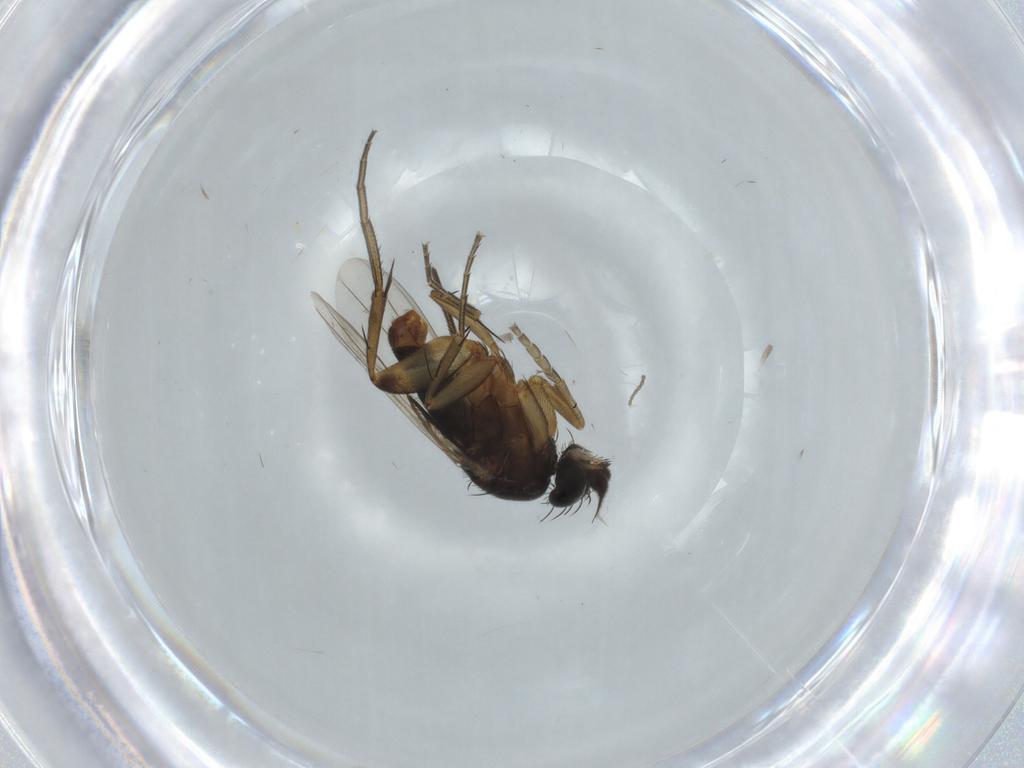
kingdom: Animalia
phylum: Arthropoda
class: Insecta
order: Diptera
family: Phoridae
